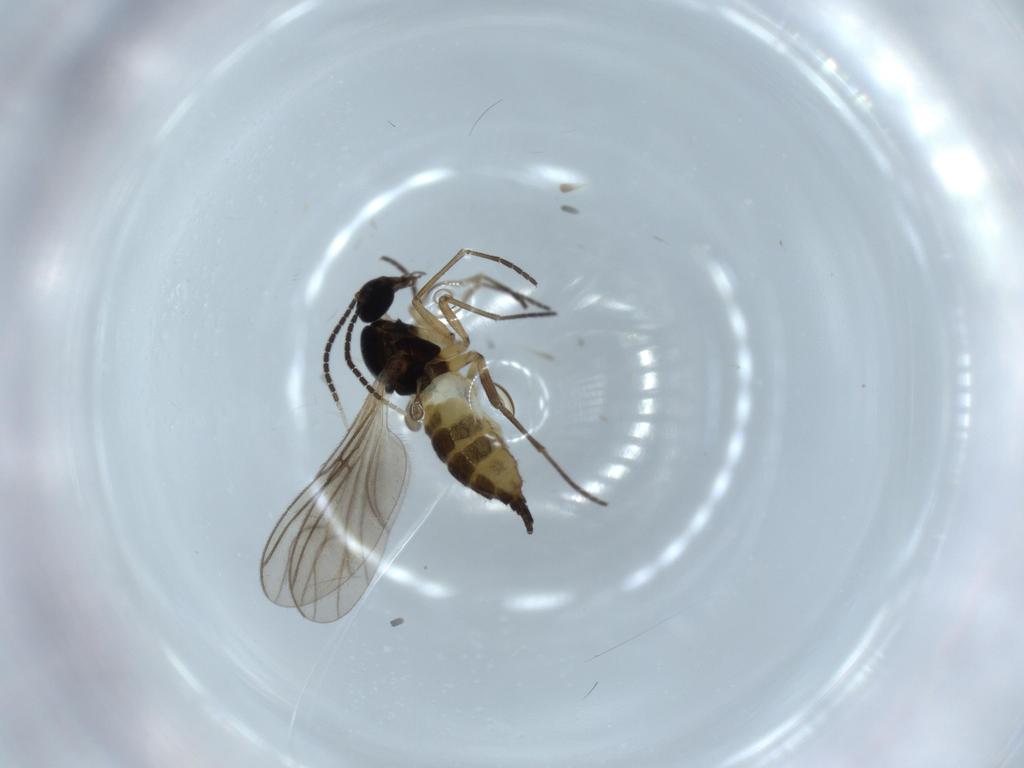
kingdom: Animalia
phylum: Arthropoda
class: Insecta
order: Diptera
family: Sciaridae
